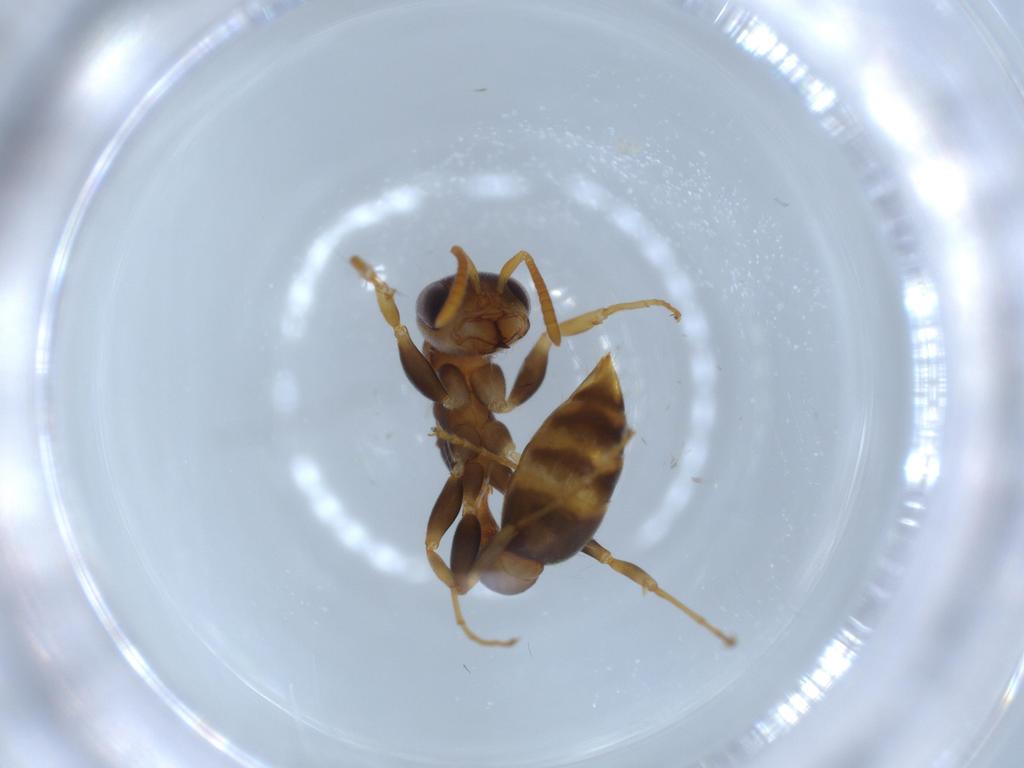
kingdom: Animalia
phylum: Arthropoda
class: Insecta
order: Hymenoptera
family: Formicidae
